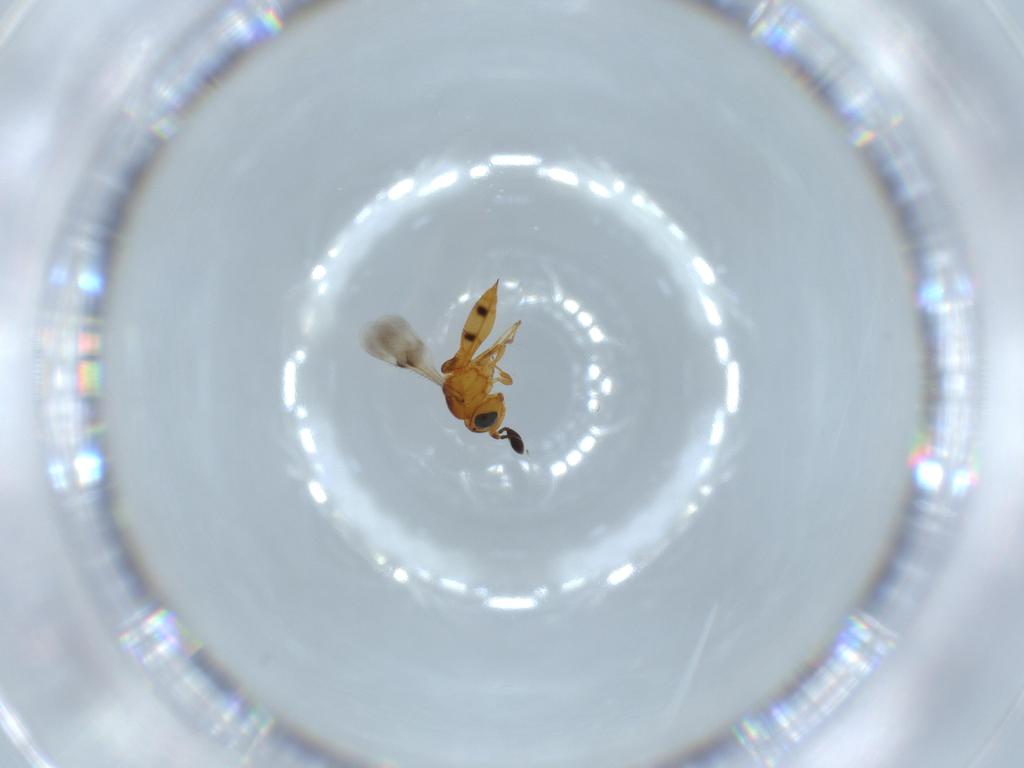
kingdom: Animalia
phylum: Arthropoda
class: Insecta
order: Hymenoptera
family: Scelionidae
